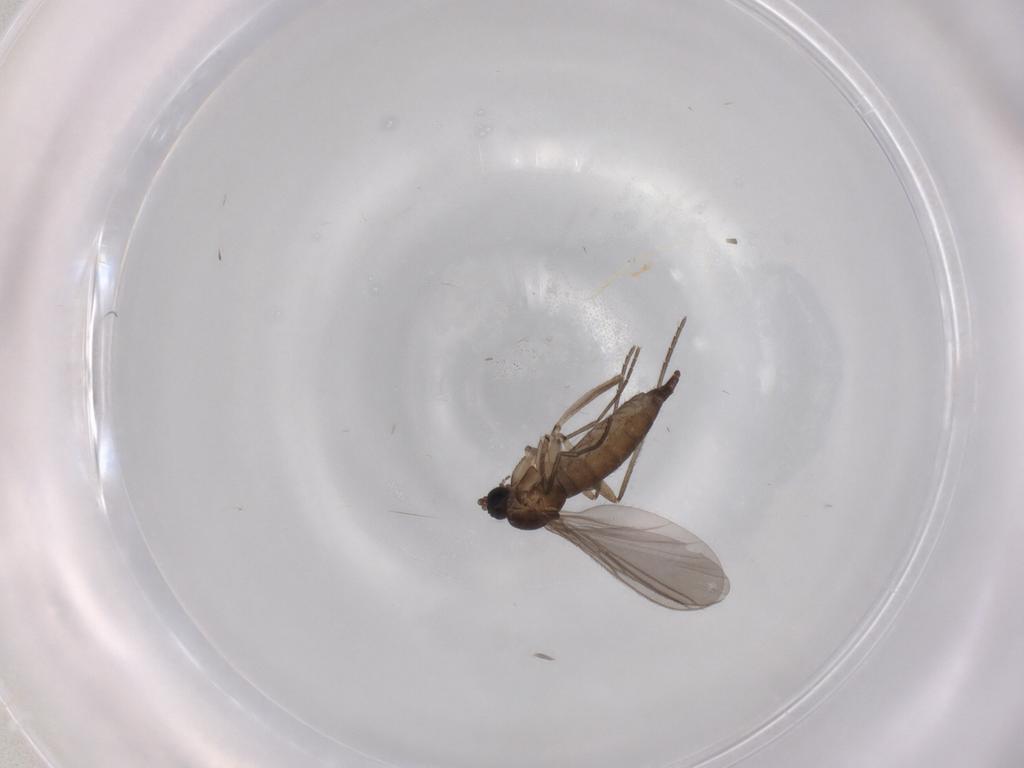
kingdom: Animalia
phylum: Arthropoda
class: Insecta
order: Diptera
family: Sciaridae
